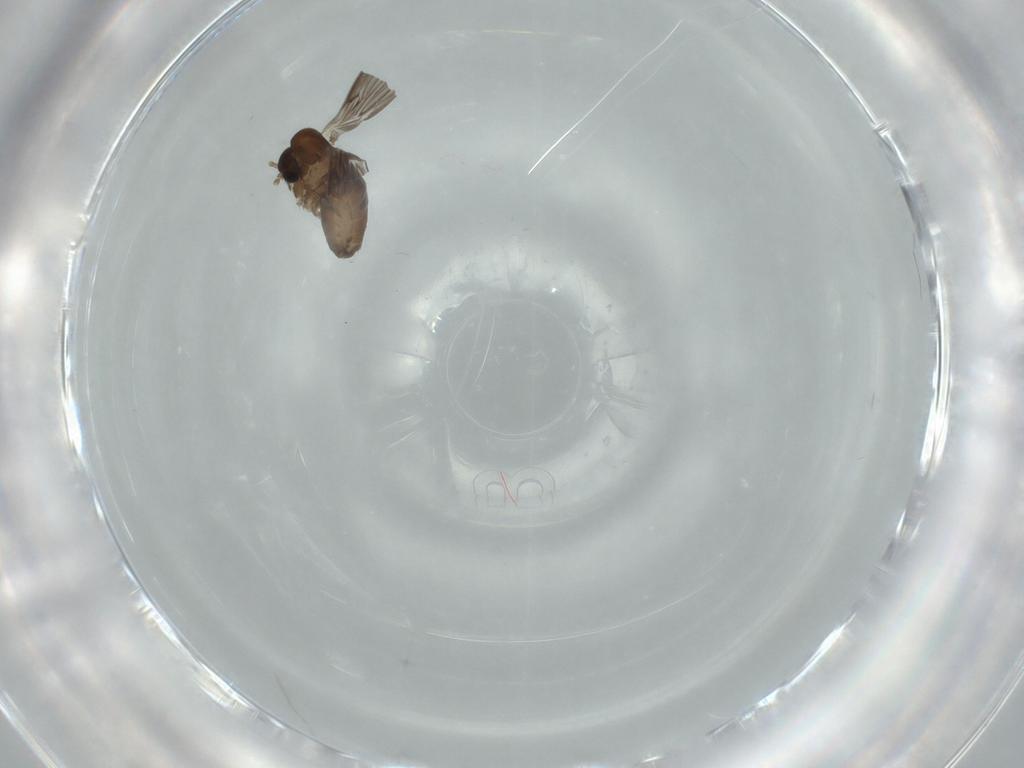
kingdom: Animalia
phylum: Arthropoda
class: Insecta
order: Diptera
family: Psychodidae
